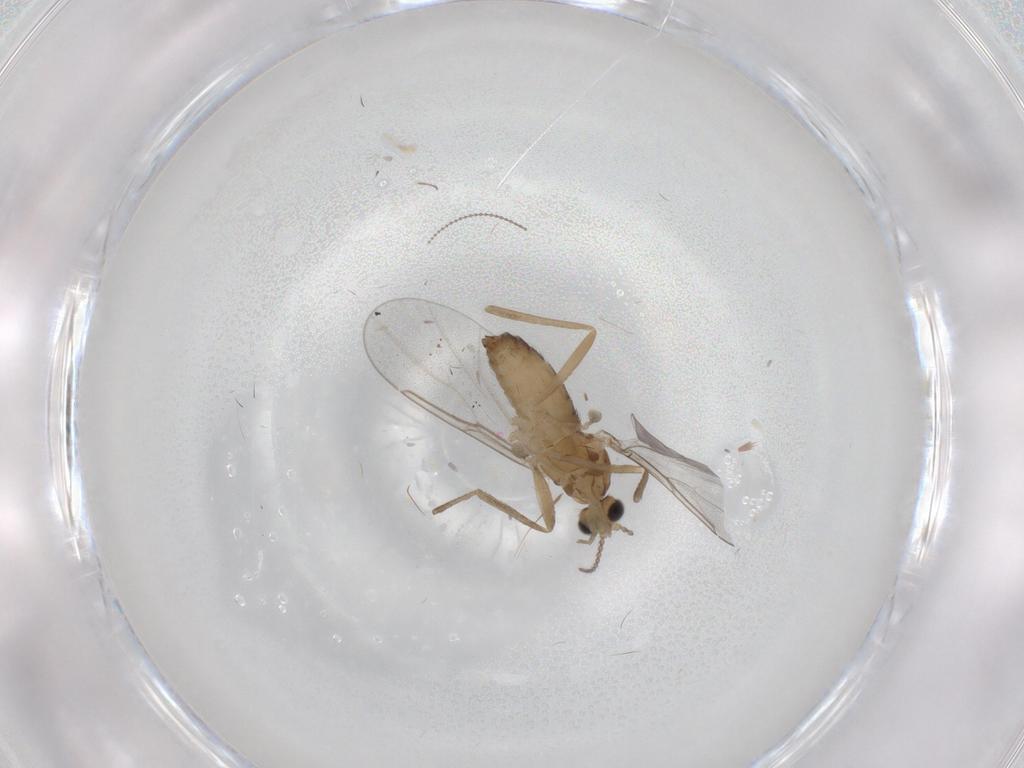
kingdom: Animalia
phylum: Arthropoda
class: Insecta
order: Diptera
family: Cecidomyiidae
